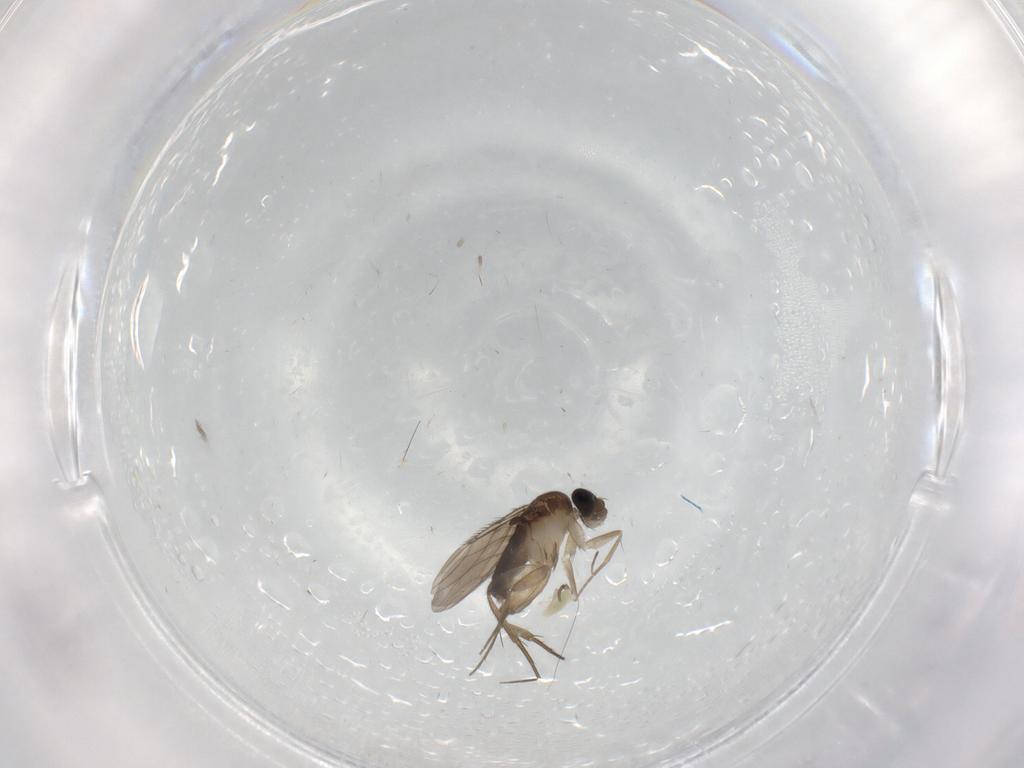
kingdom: Animalia
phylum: Arthropoda
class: Insecta
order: Diptera
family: Phoridae
